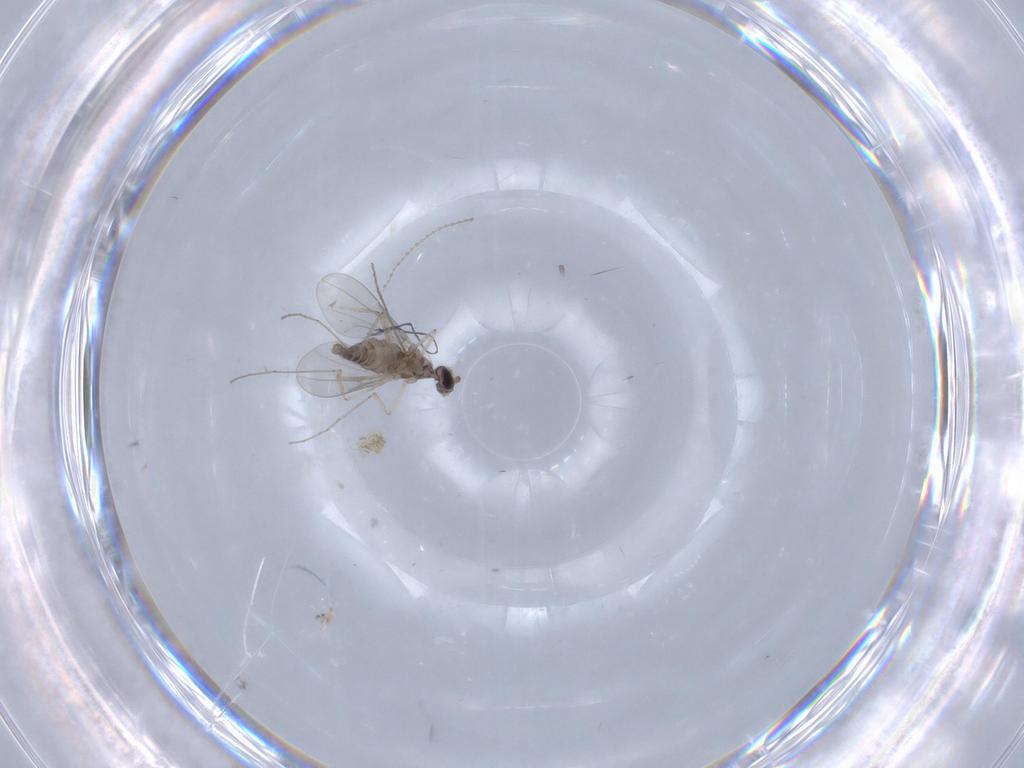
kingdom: Animalia
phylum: Arthropoda
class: Insecta
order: Diptera
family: Cecidomyiidae
